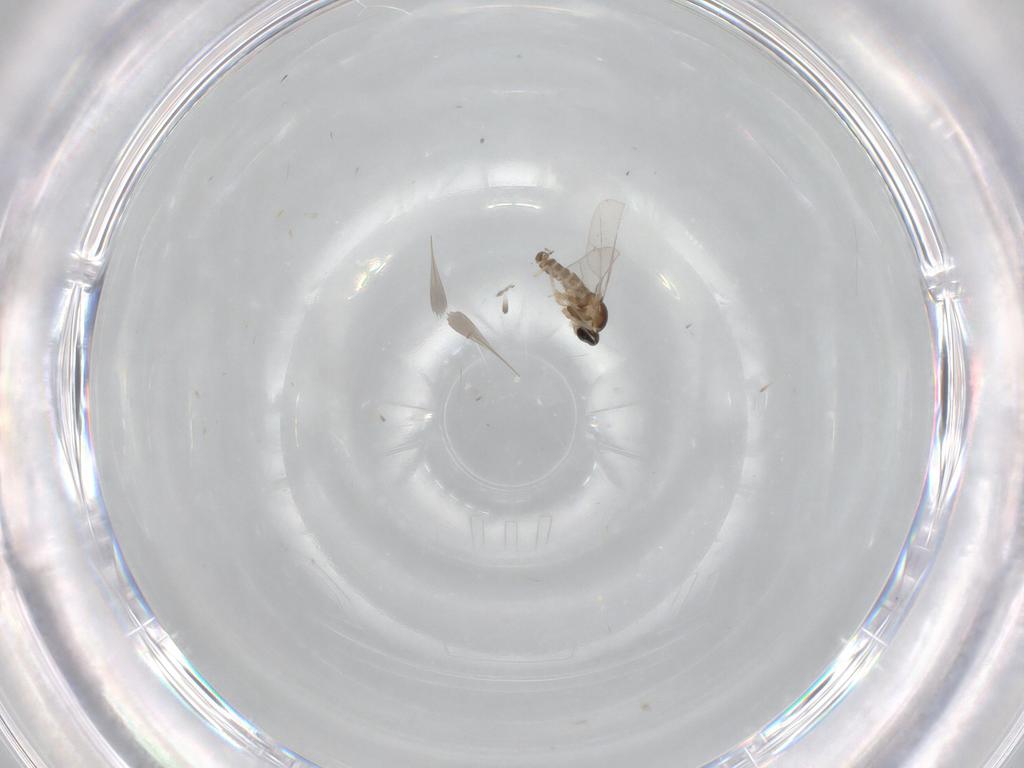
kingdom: Animalia
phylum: Arthropoda
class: Insecta
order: Diptera
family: Cecidomyiidae
